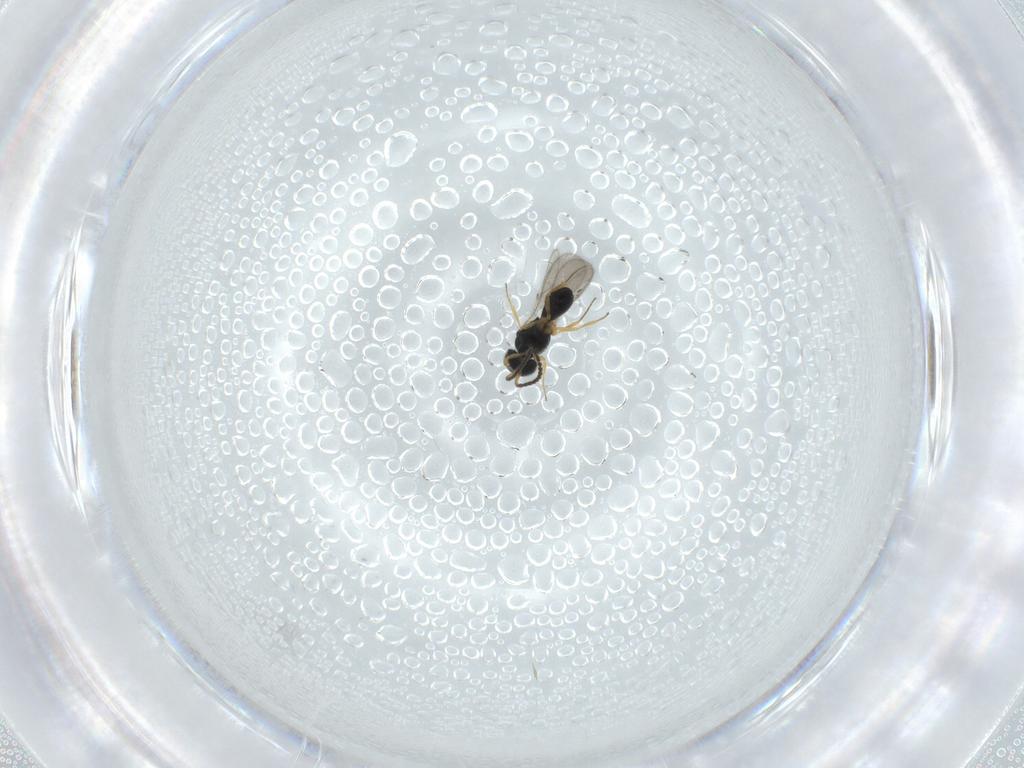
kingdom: Animalia
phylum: Arthropoda
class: Insecta
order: Hymenoptera
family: Scelionidae
